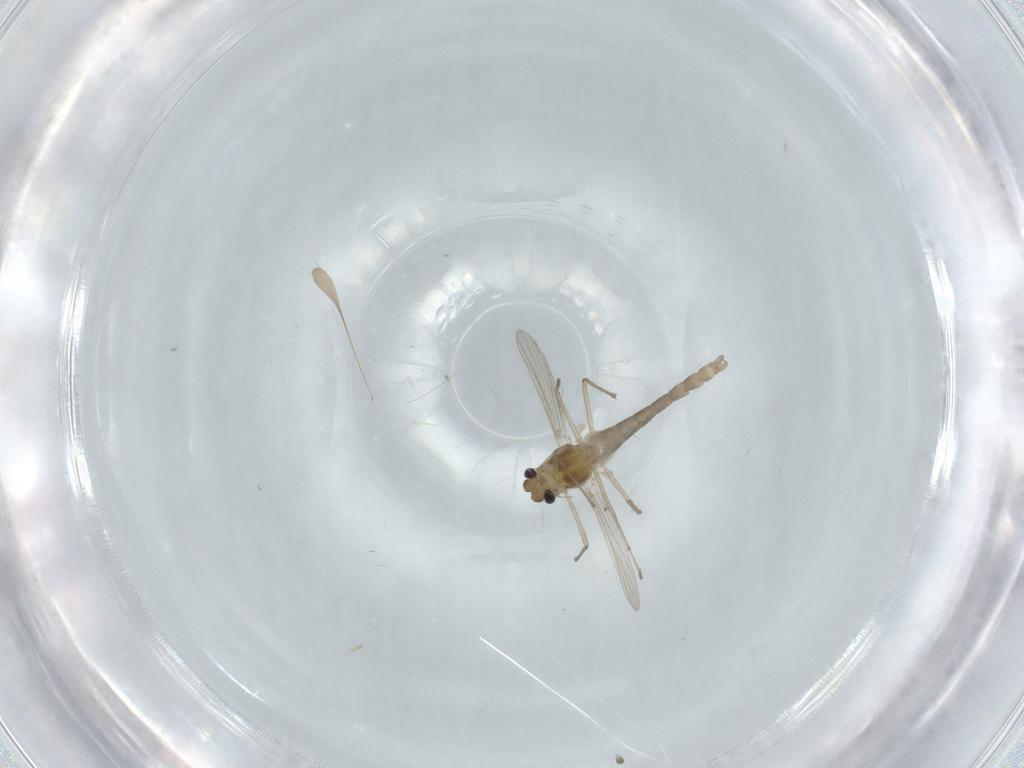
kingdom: Animalia
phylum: Arthropoda
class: Insecta
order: Diptera
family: Chironomidae
